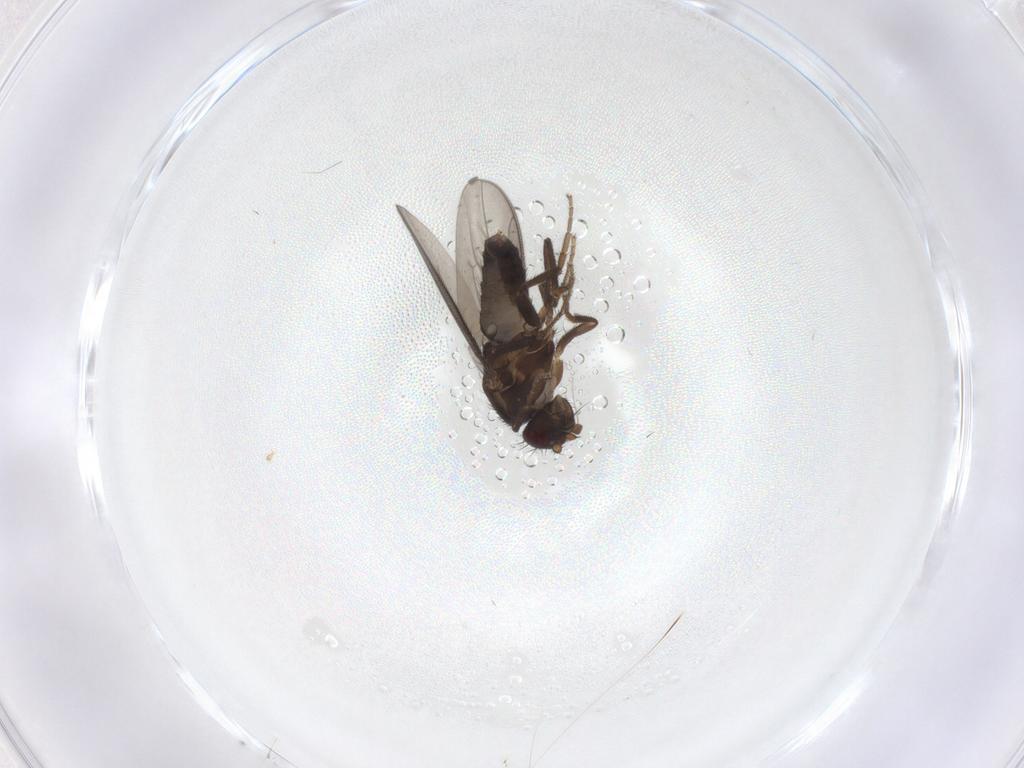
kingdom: Animalia
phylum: Arthropoda
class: Insecta
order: Diptera
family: Sphaeroceridae
